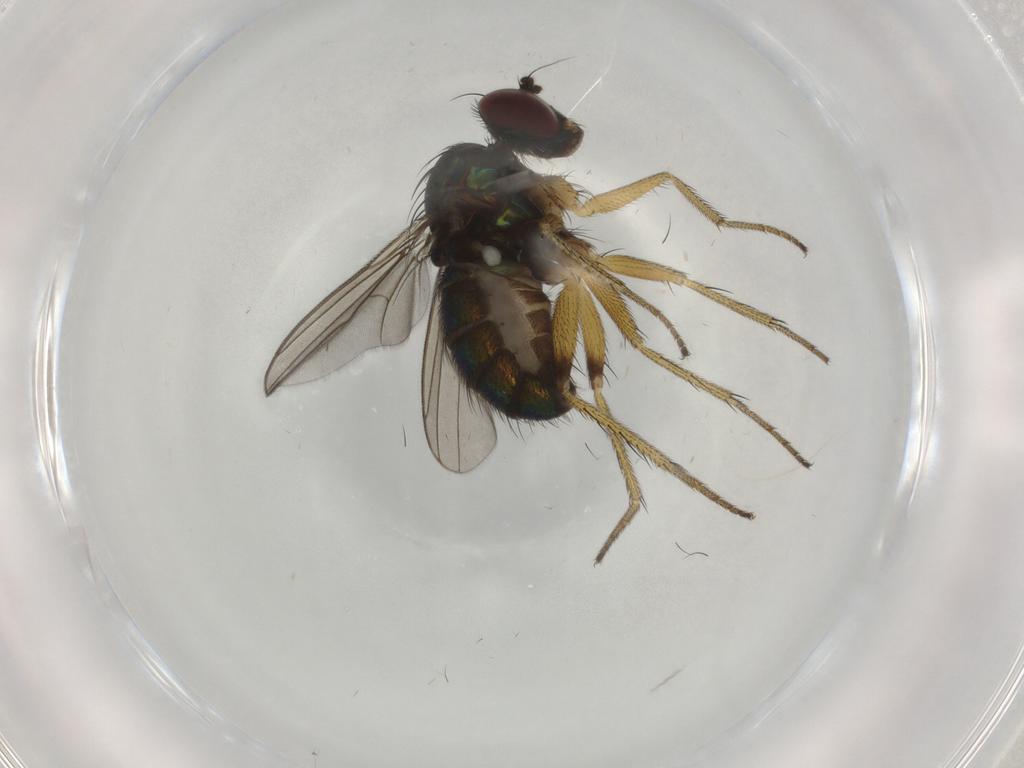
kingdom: Animalia
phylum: Arthropoda
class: Insecta
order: Diptera
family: Dolichopodidae
